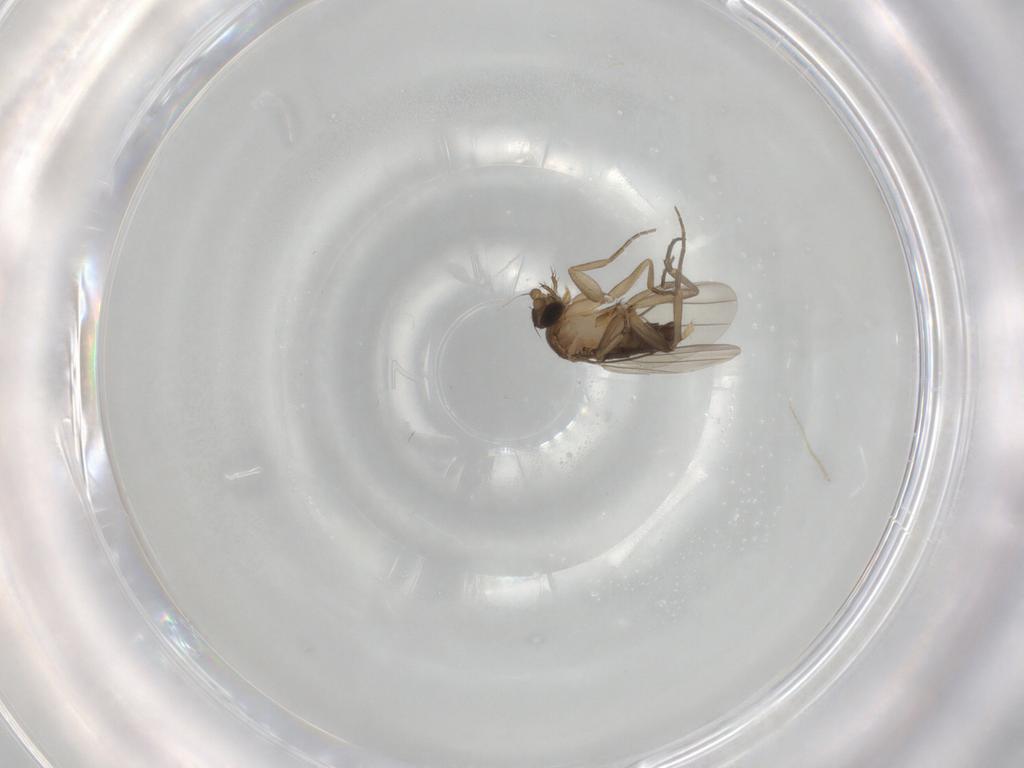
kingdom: Animalia
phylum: Arthropoda
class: Insecta
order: Diptera
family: Phoridae
